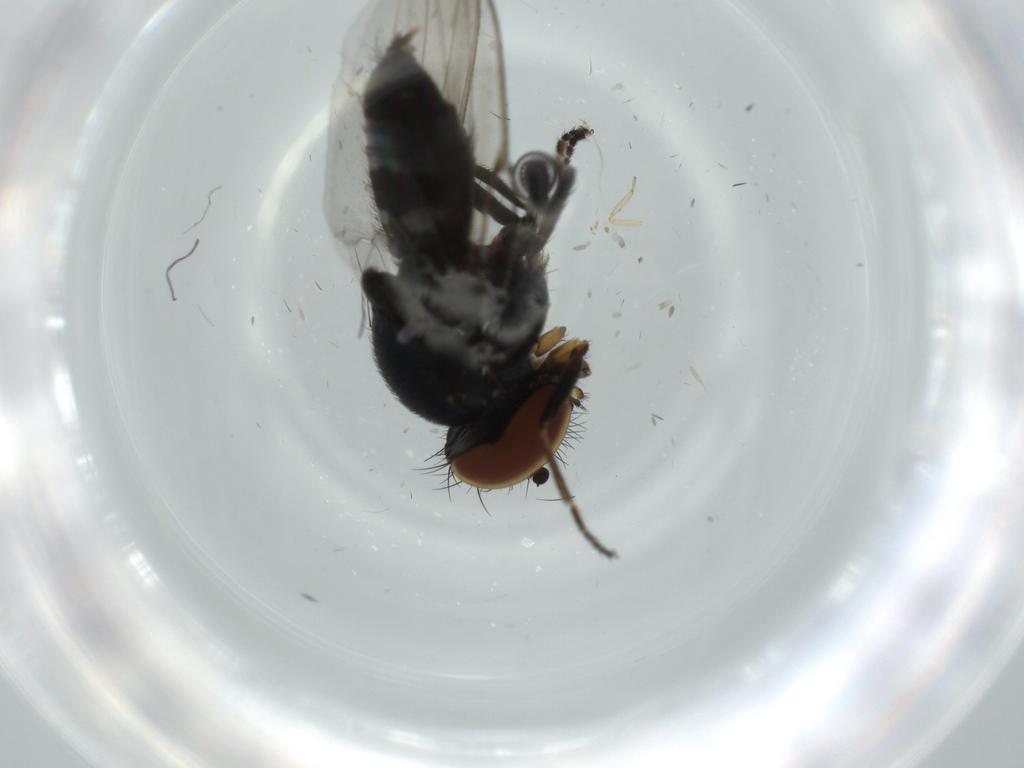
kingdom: Animalia
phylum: Arthropoda
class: Insecta
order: Diptera
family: Milichiidae
